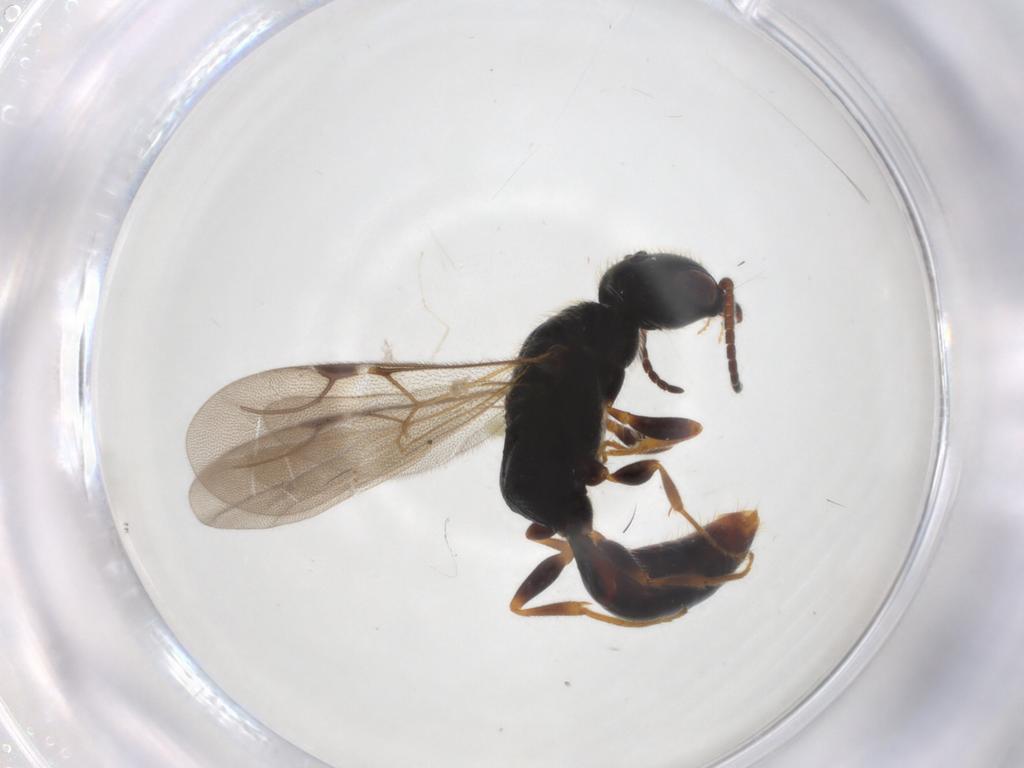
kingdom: Animalia
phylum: Arthropoda
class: Insecta
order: Hymenoptera
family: Bethylidae
